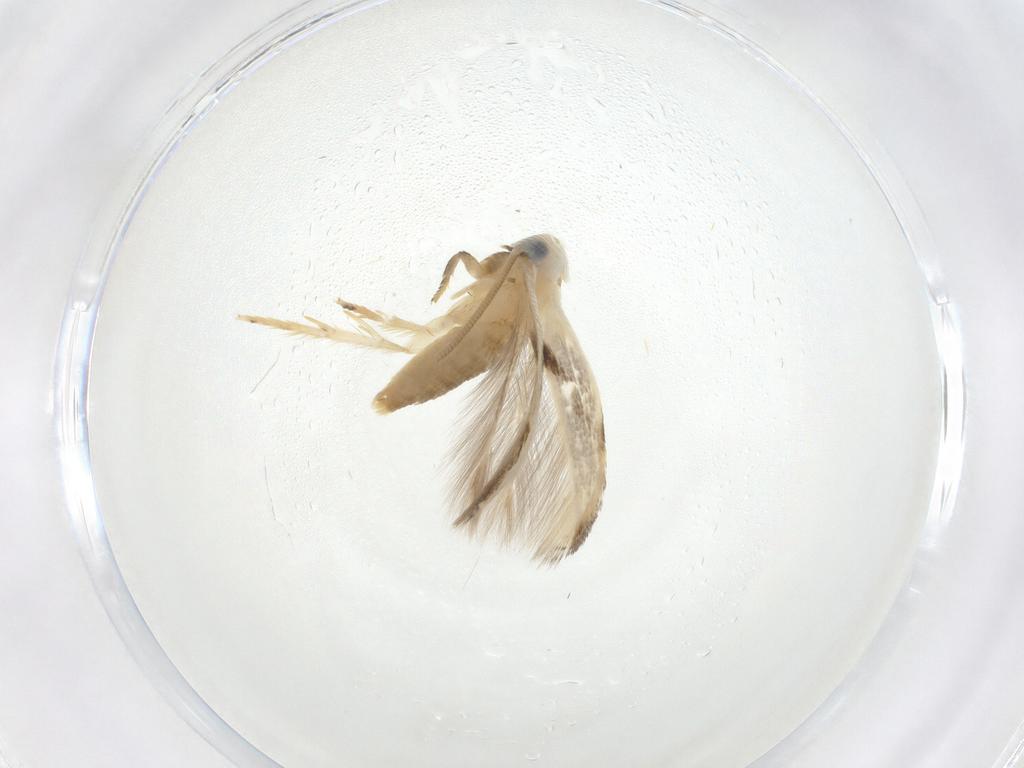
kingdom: Animalia
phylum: Arthropoda
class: Insecta
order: Lepidoptera
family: Opostegidae
